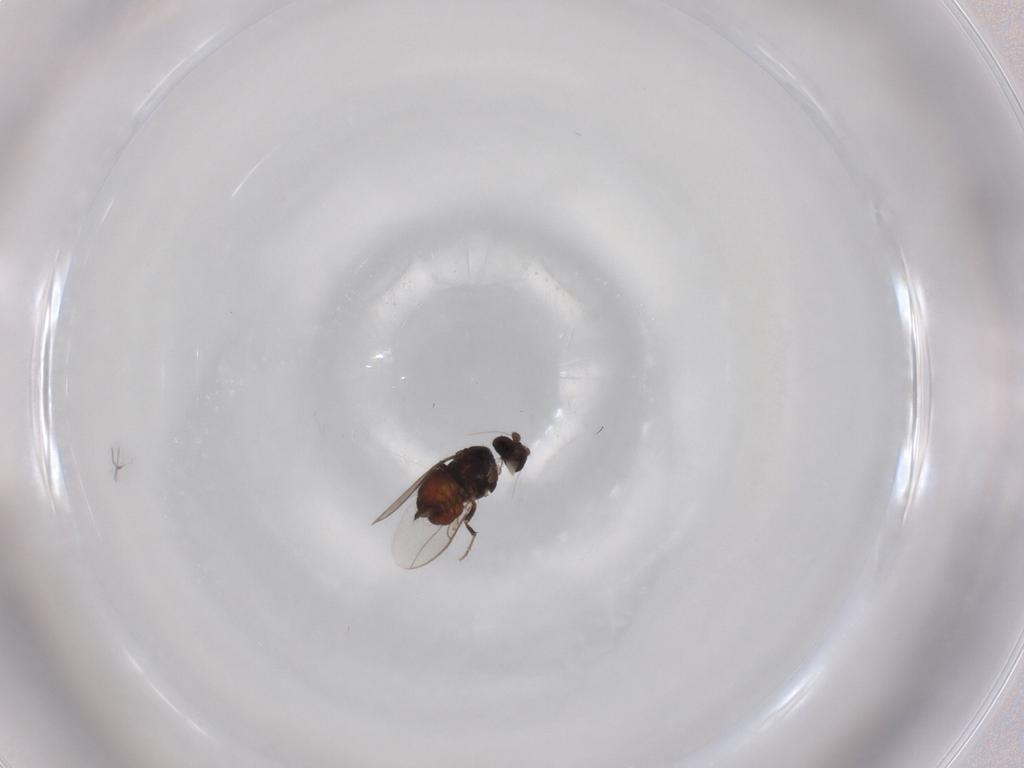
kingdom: Animalia
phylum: Arthropoda
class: Insecta
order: Diptera
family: Sphaeroceridae
